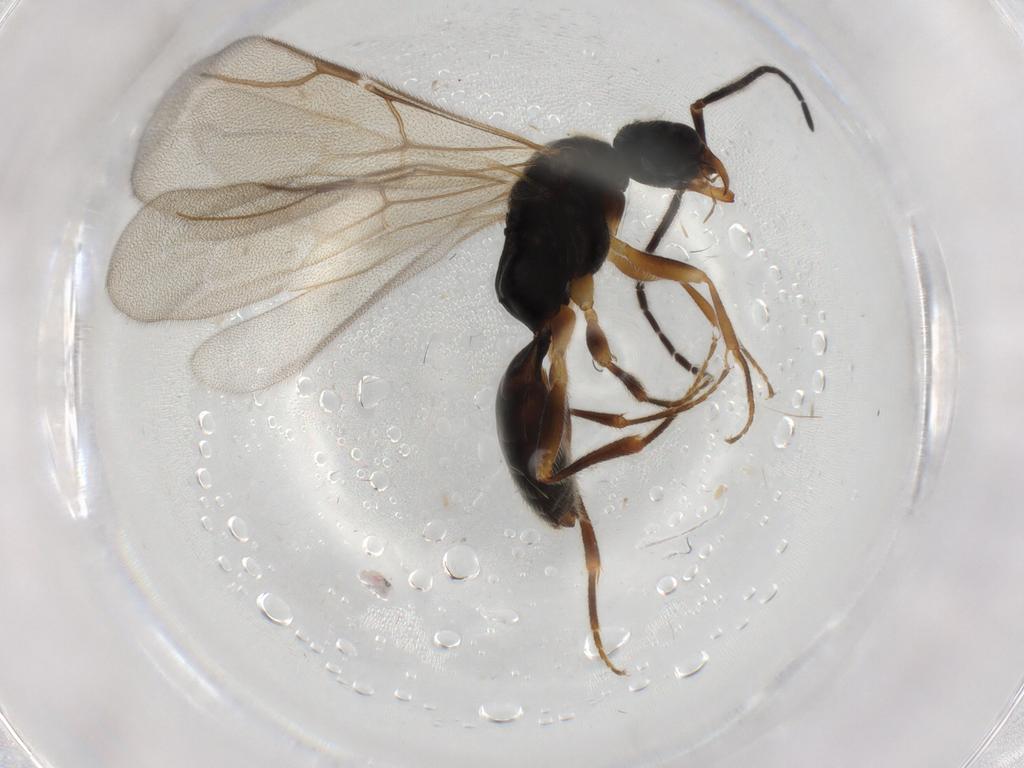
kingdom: Animalia
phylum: Arthropoda
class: Insecta
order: Hymenoptera
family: Bethylidae
